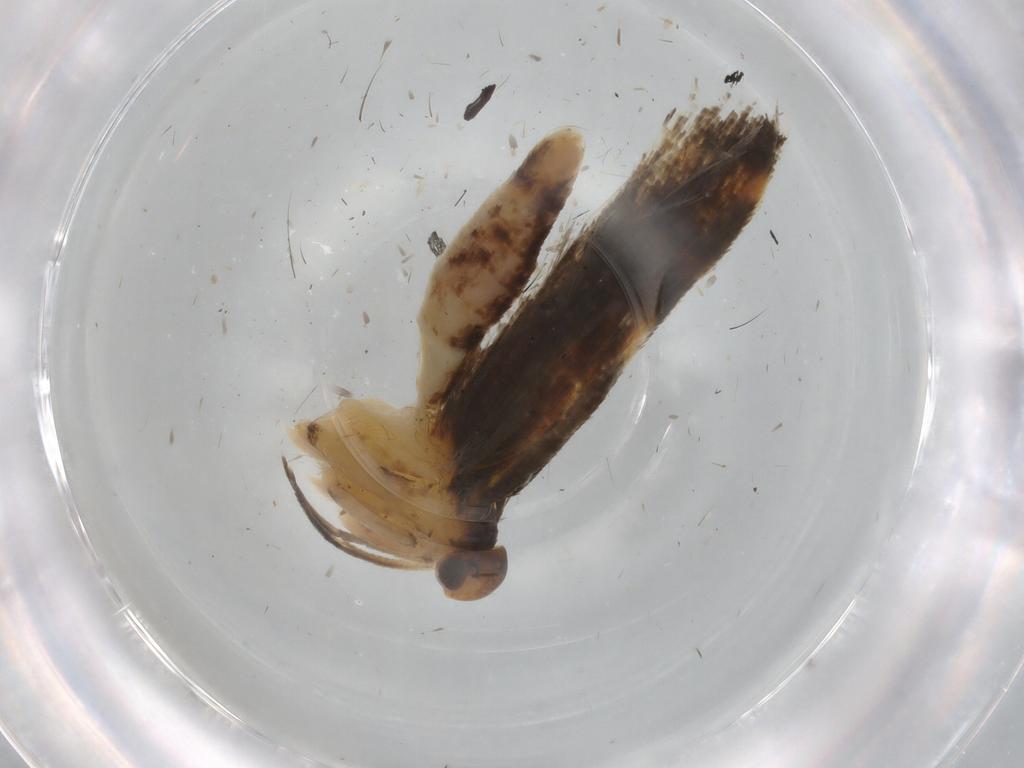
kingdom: Animalia
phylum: Arthropoda
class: Insecta
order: Lepidoptera
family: Gelechiidae
